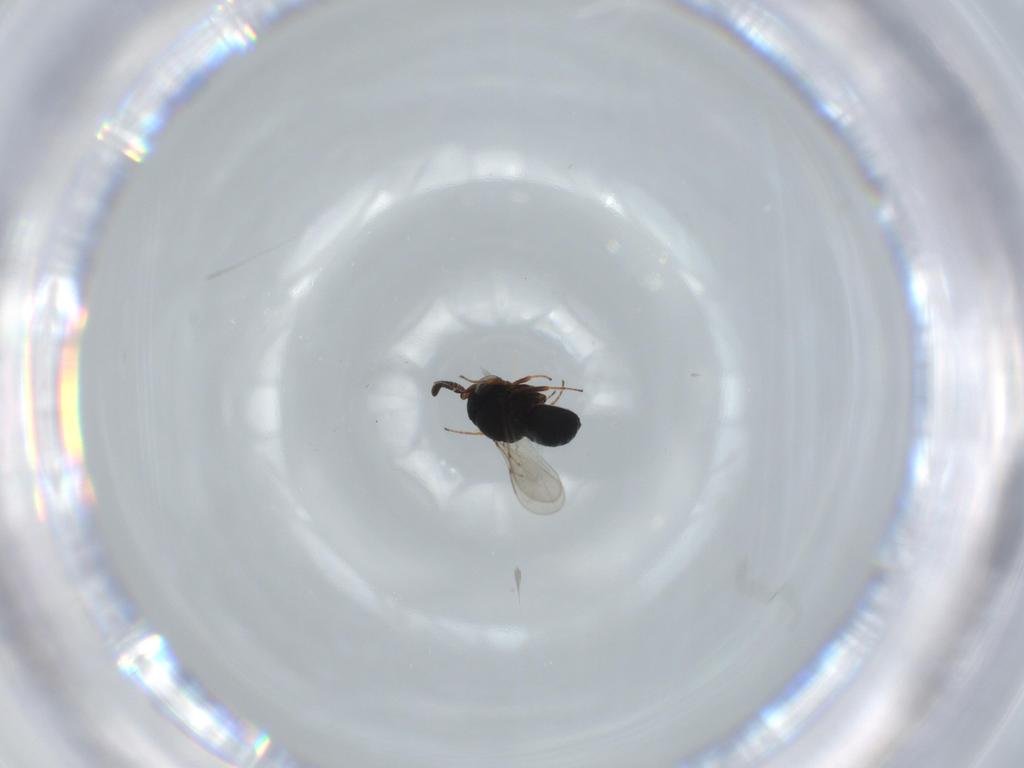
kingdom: Animalia
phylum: Arthropoda
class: Insecta
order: Hymenoptera
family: Scelionidae
